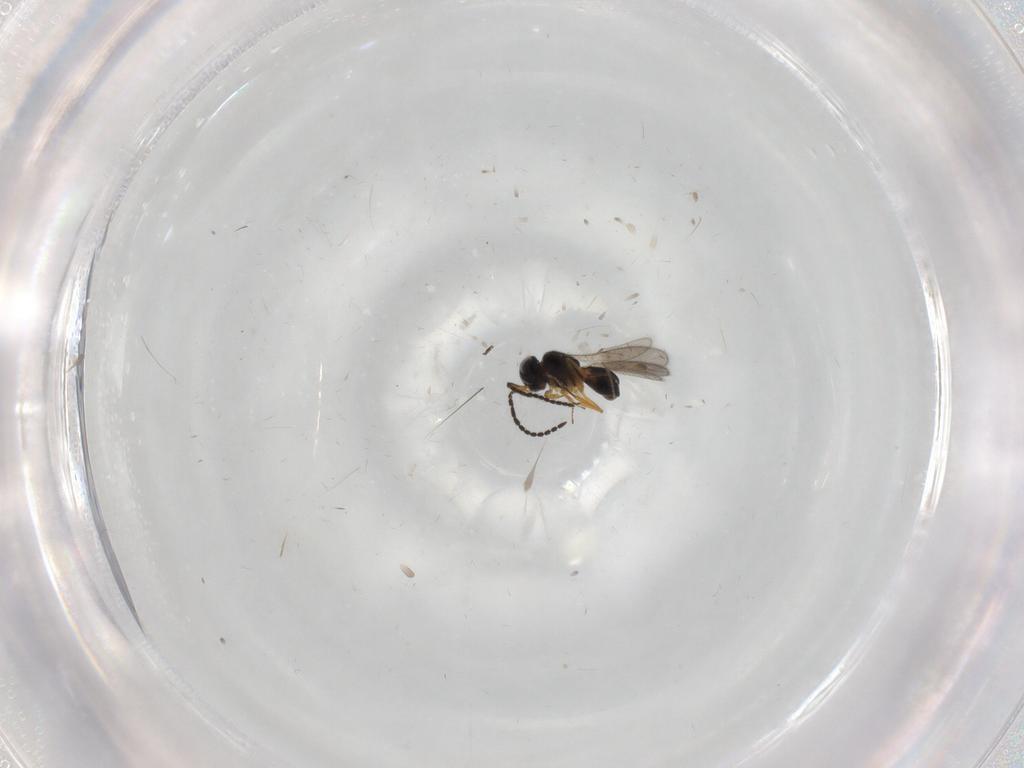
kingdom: Animalia
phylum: Arthropoda
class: Insecta
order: Hymenoptera
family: Scelionidae
